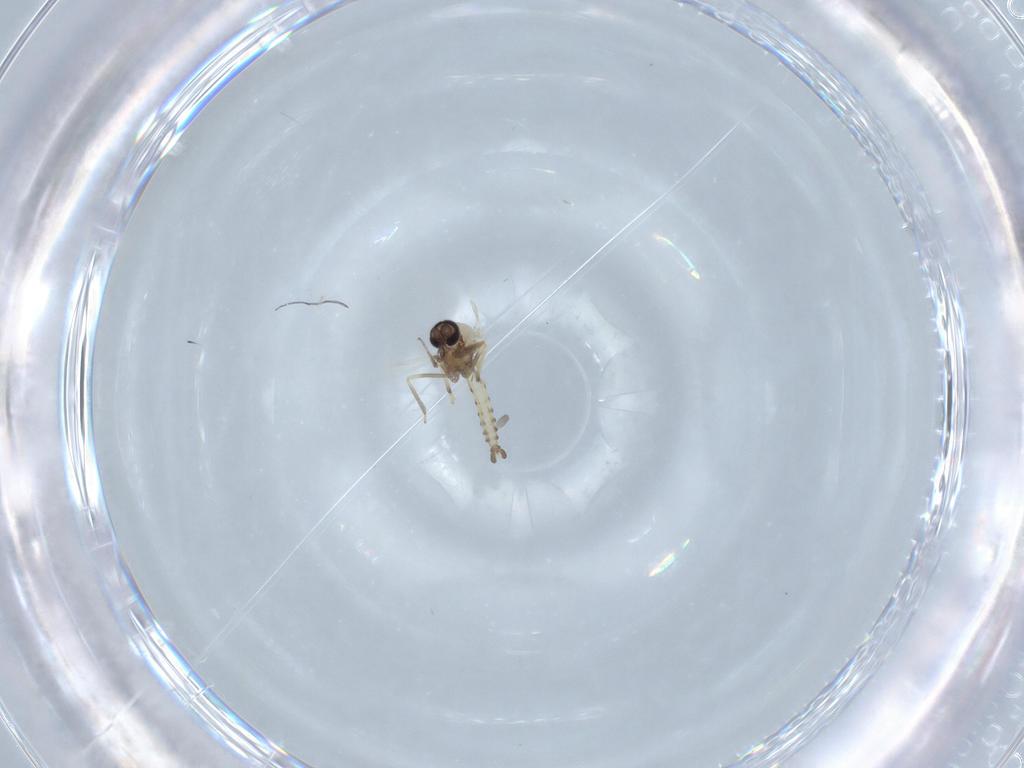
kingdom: Animalia
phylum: Arthropoda
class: Insecta
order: Diptera
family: Ceratopogonidae
